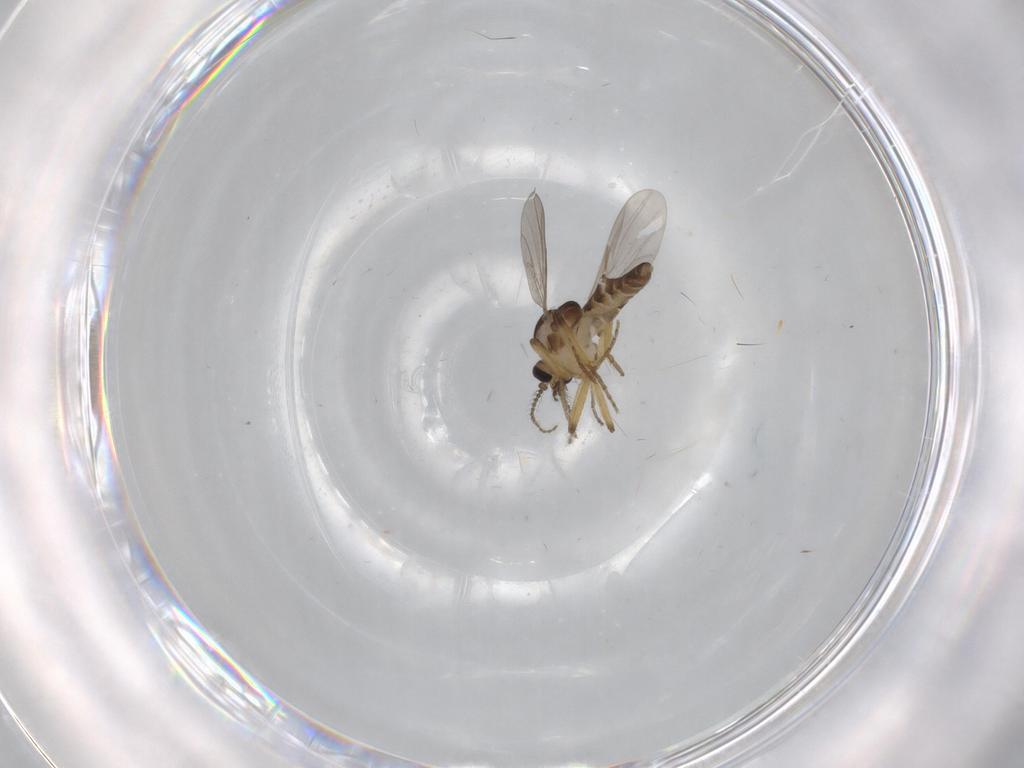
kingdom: Animalia
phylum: Arthropoda
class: Insecta
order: Diptera
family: Ceratopogonidae
